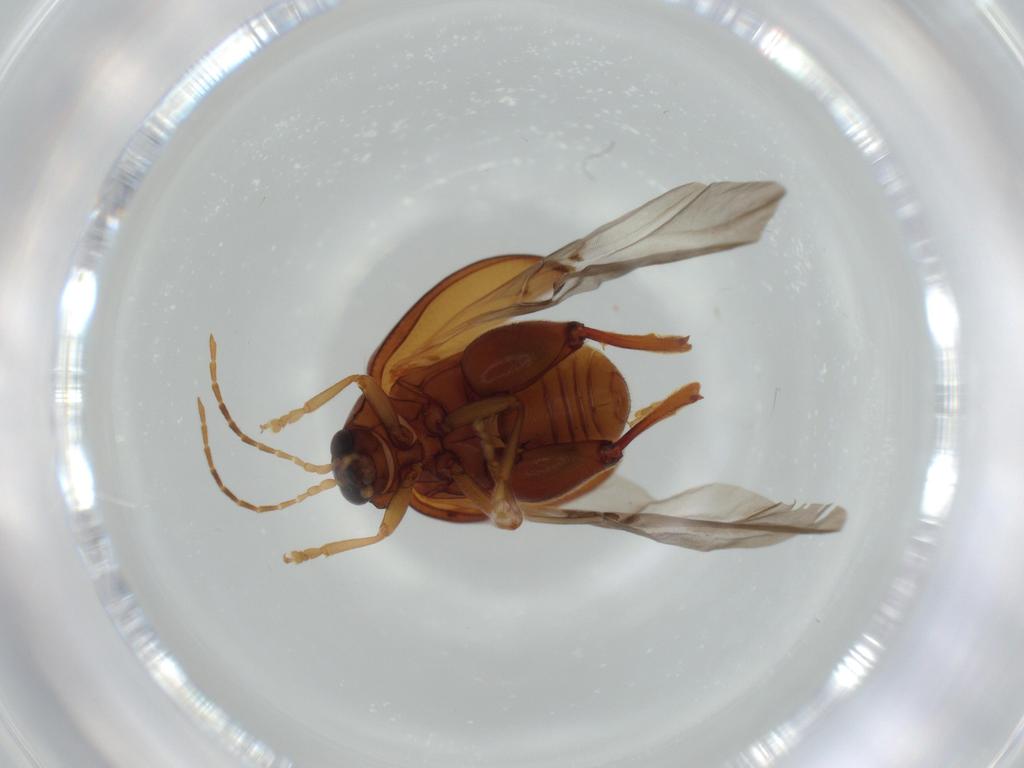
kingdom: Animalia
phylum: Arthropoda
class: Insecta
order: Coleoptera
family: Chrysomelidae
